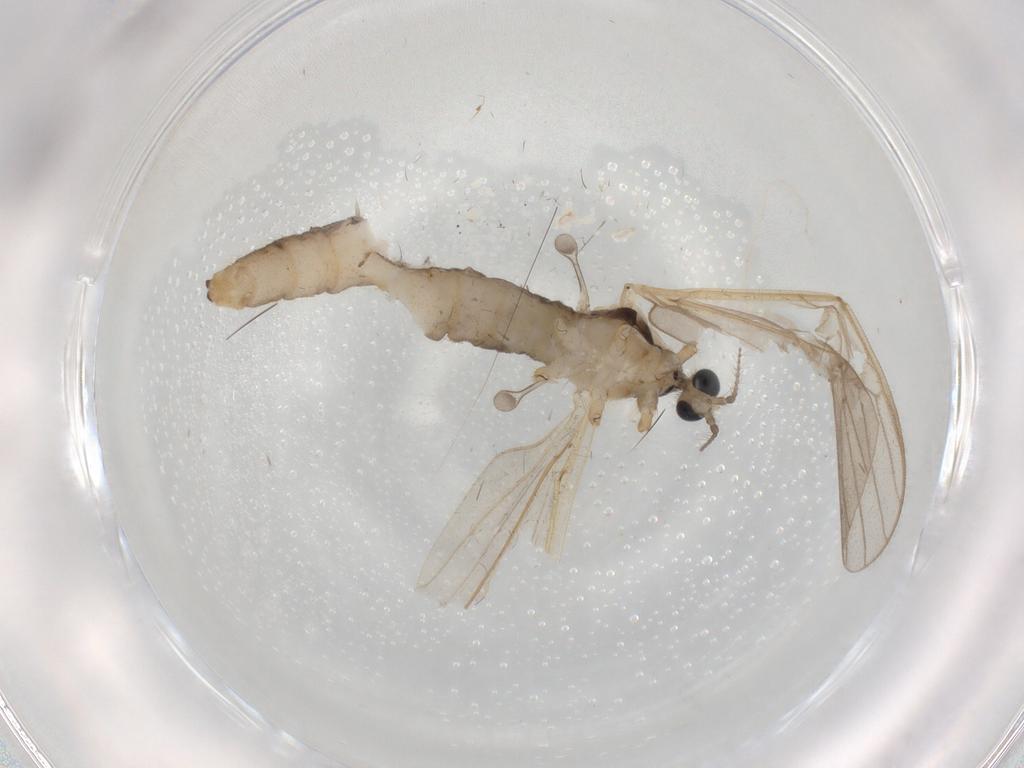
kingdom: Animalia
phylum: Arthropoda
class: Insecta
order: Diptera
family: Limoniidae
